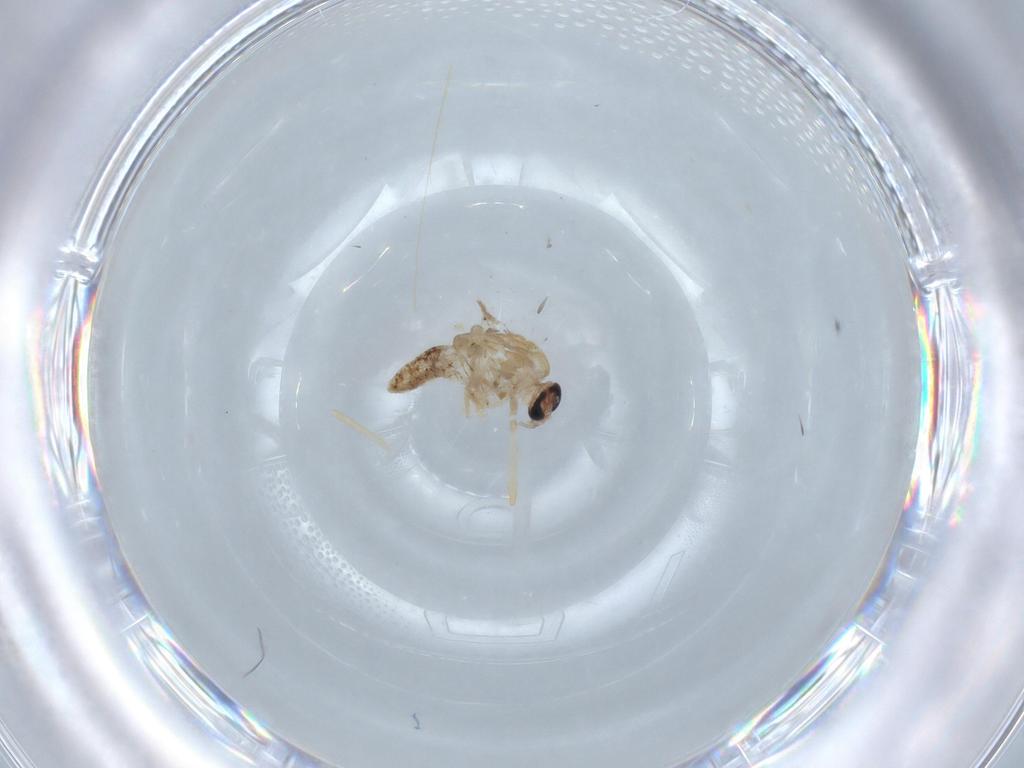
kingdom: Animalia
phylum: Arthropoda
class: Insecta
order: Diptera
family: Chironomidae
